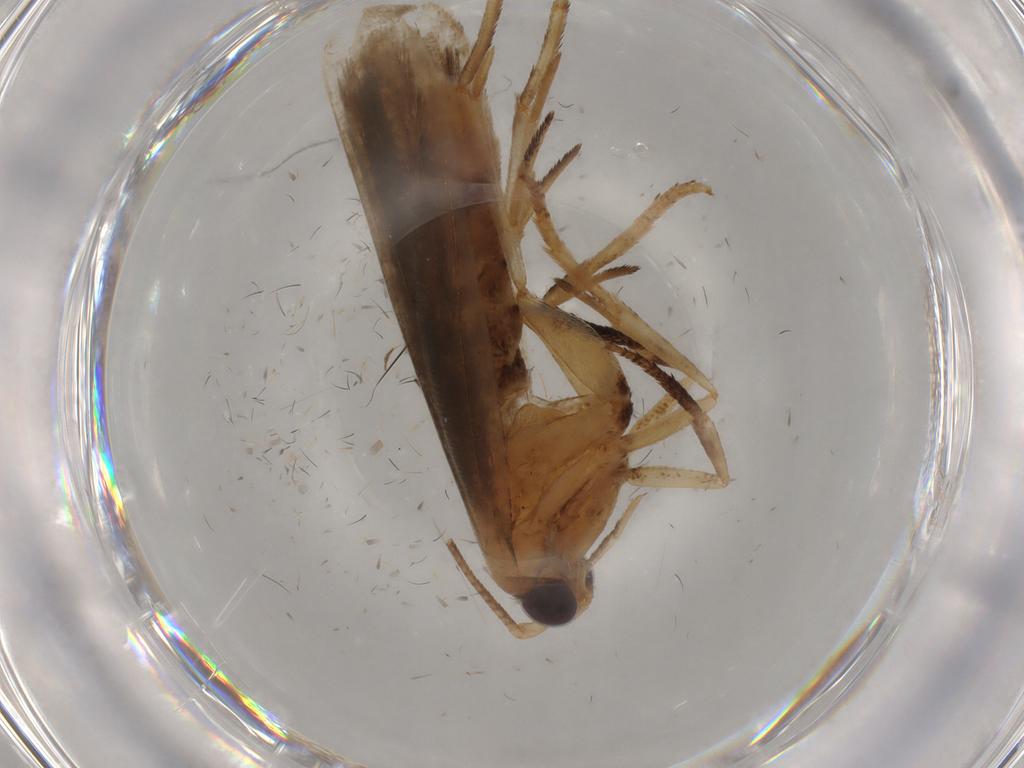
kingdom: Animalia
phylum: Arthropoda
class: Insecta
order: Lepidoptera
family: Yponomeutidae
